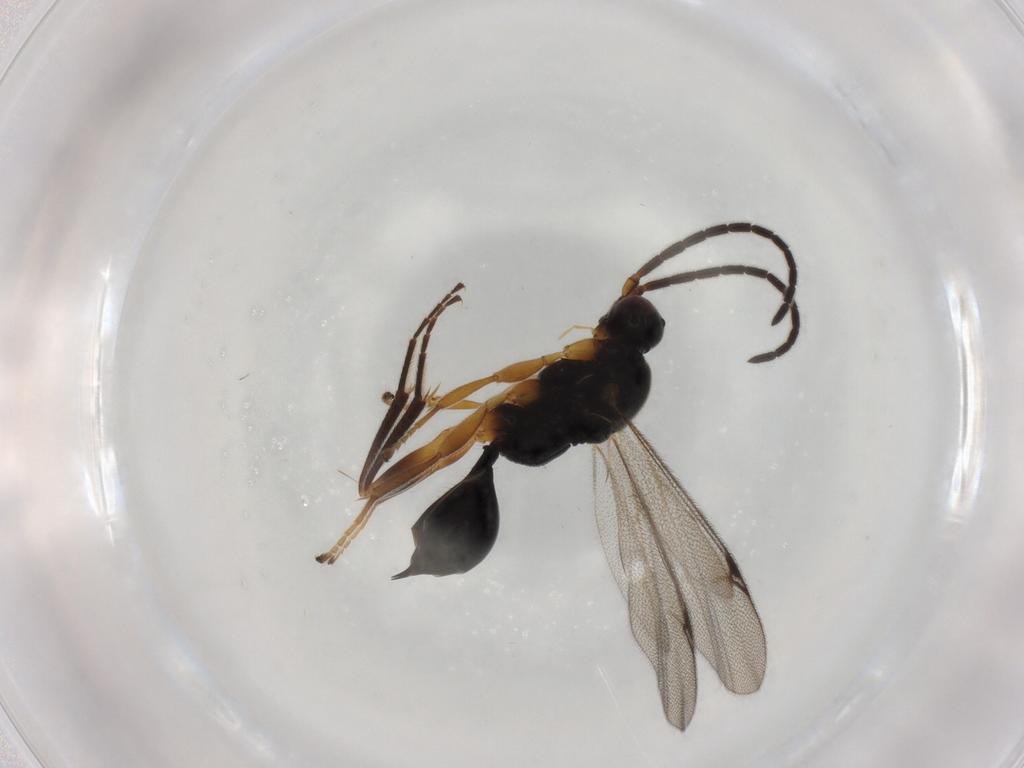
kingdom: Animalia
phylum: Arthropoda
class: Insecta
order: Hymenoptera
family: Proctotrupidae
